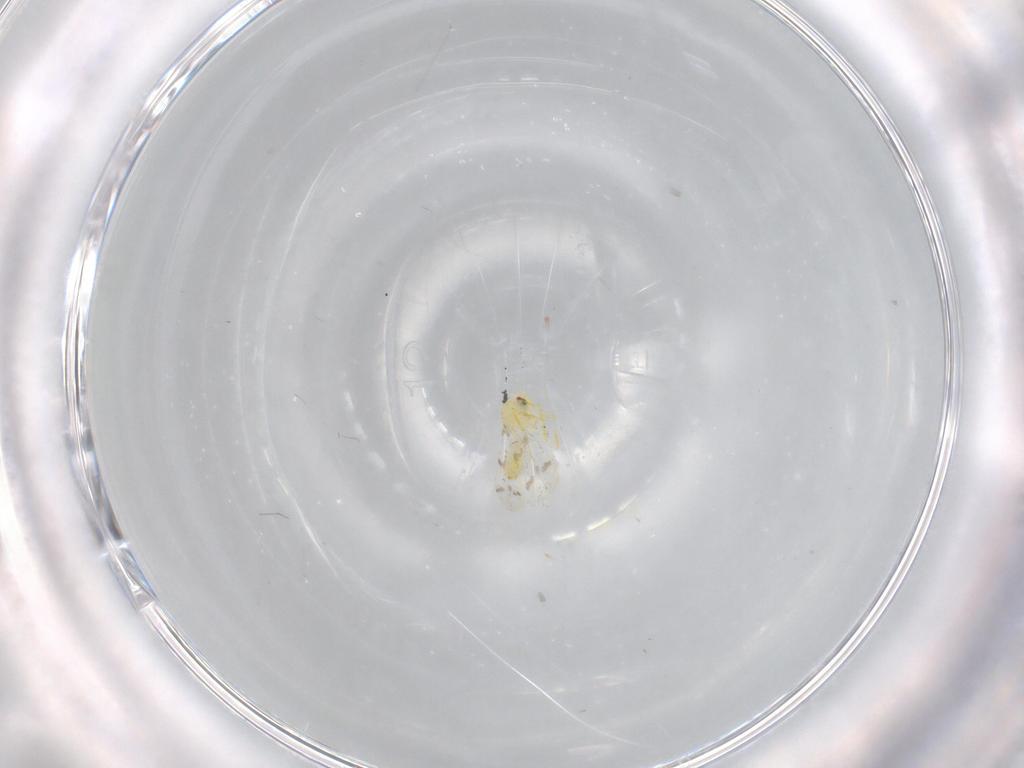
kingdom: Animalia
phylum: Arthropoda
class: Insecta
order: Hemiptera
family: Aleyrodidae
